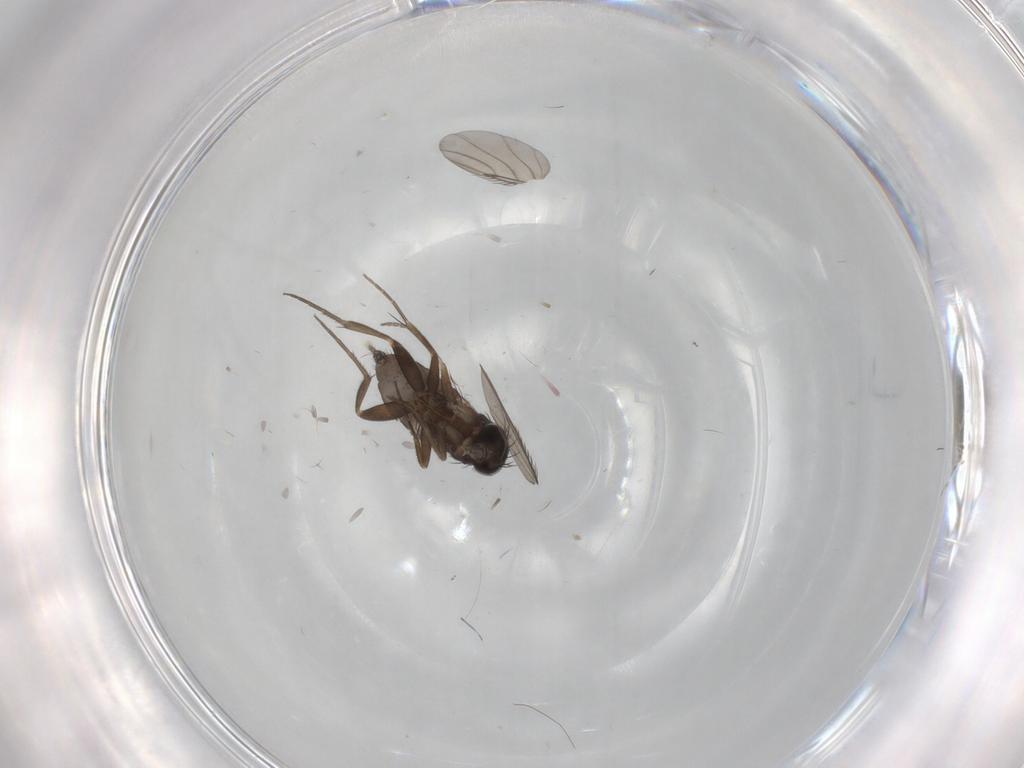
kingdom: Animalia
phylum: Arthropoda
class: Insecta
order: Diptera
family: Phoridae
